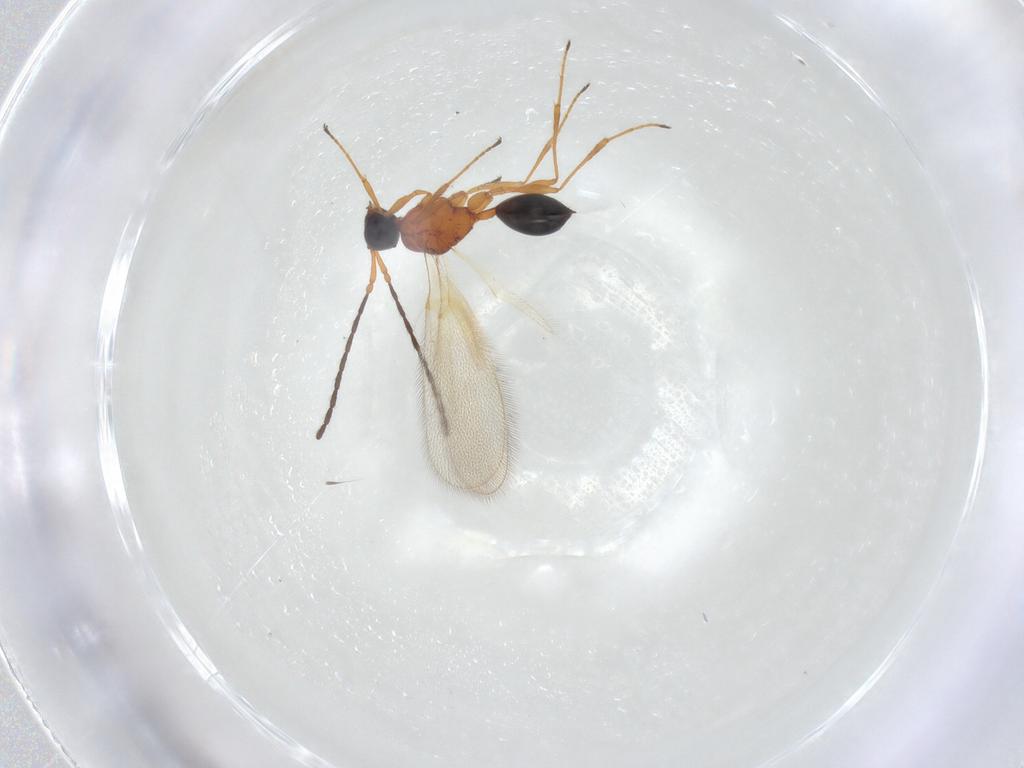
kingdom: Animalia
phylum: Arthropoda
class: Insecta
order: Hymenoptera
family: Diapriidae
